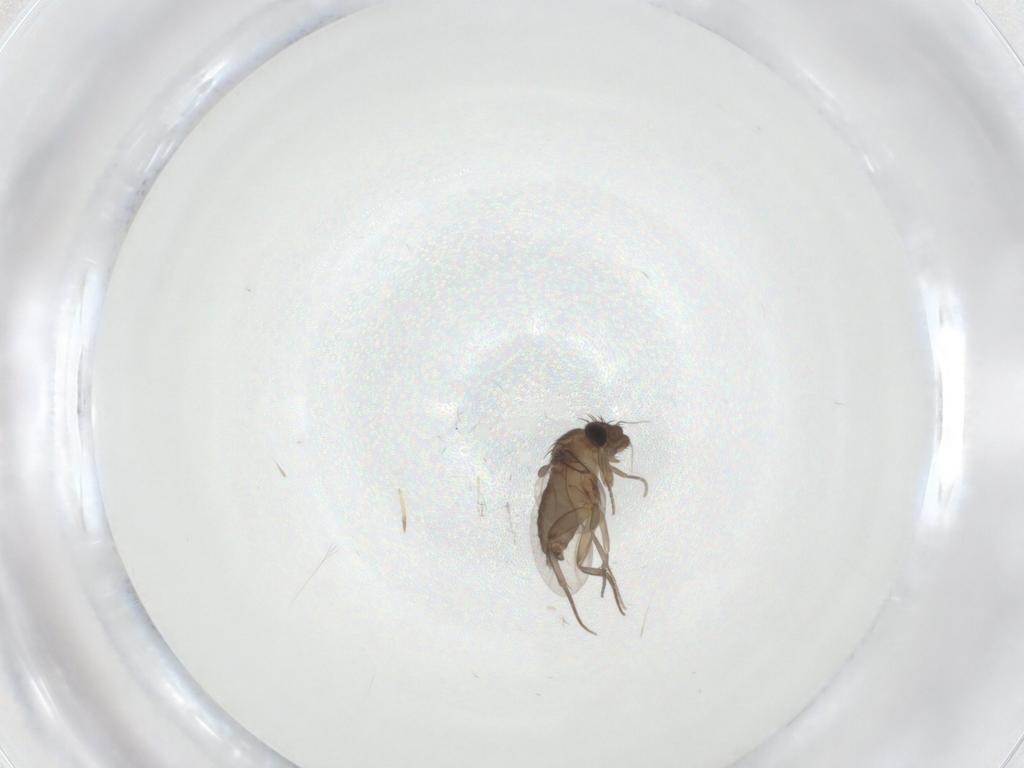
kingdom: Animalia
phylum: Arthropoda
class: Insecta
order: Diptera
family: Phoridae
